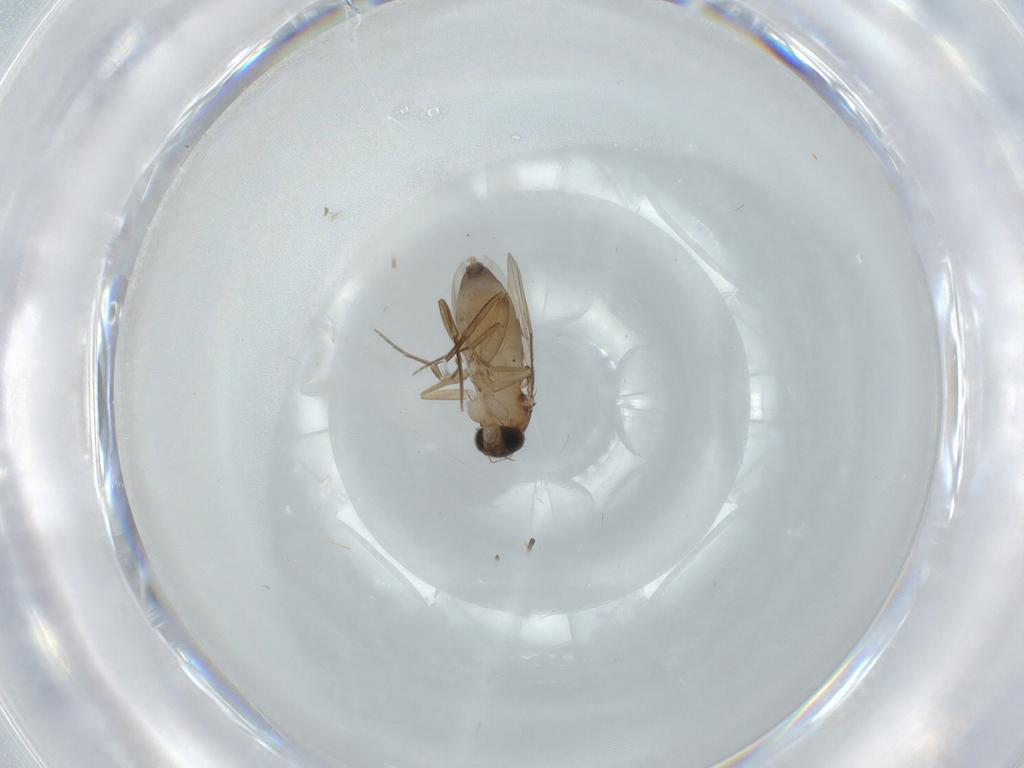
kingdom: Animalia
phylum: Arthropoda
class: Insecta
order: Diptera
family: Phoridae
